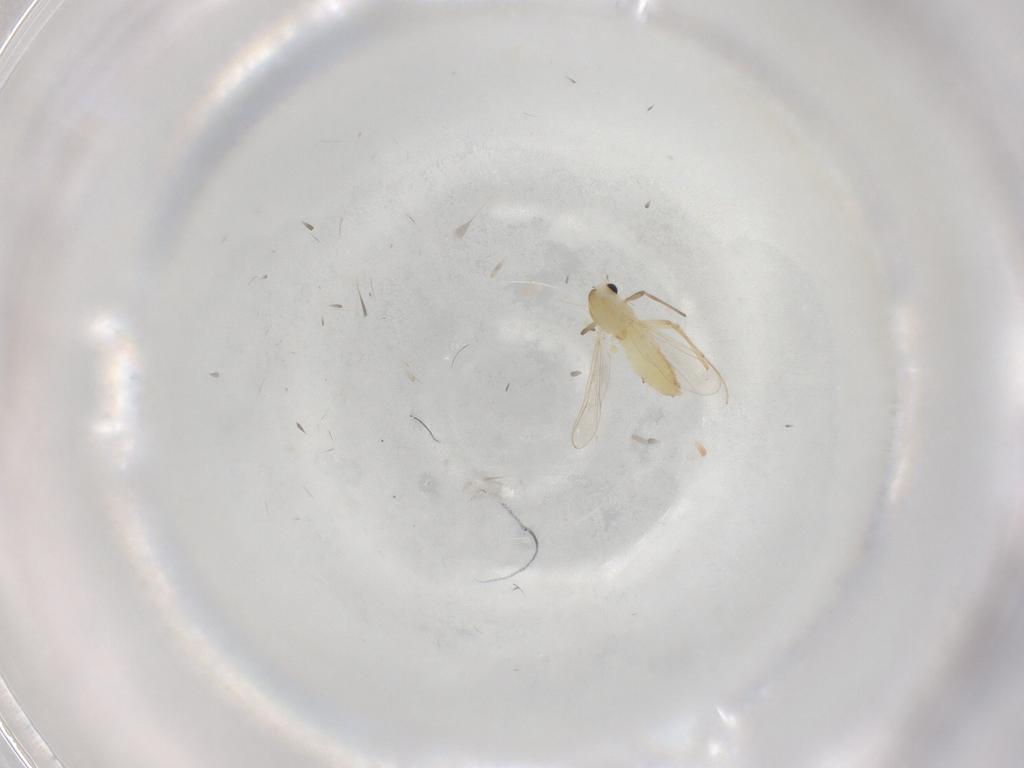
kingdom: Animalia
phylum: Arthropoda
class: Insecta
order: Diptera
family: Chironomidae
